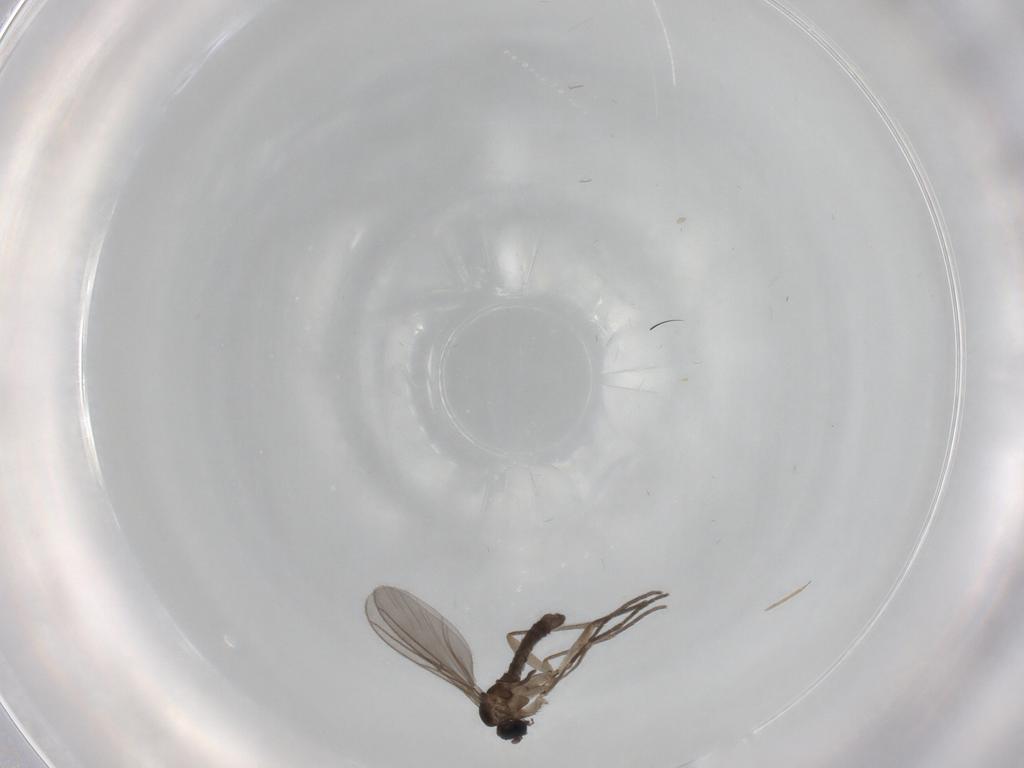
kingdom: Animalia
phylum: Arthropoda
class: Insecta
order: Diptera
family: Sciaridae
